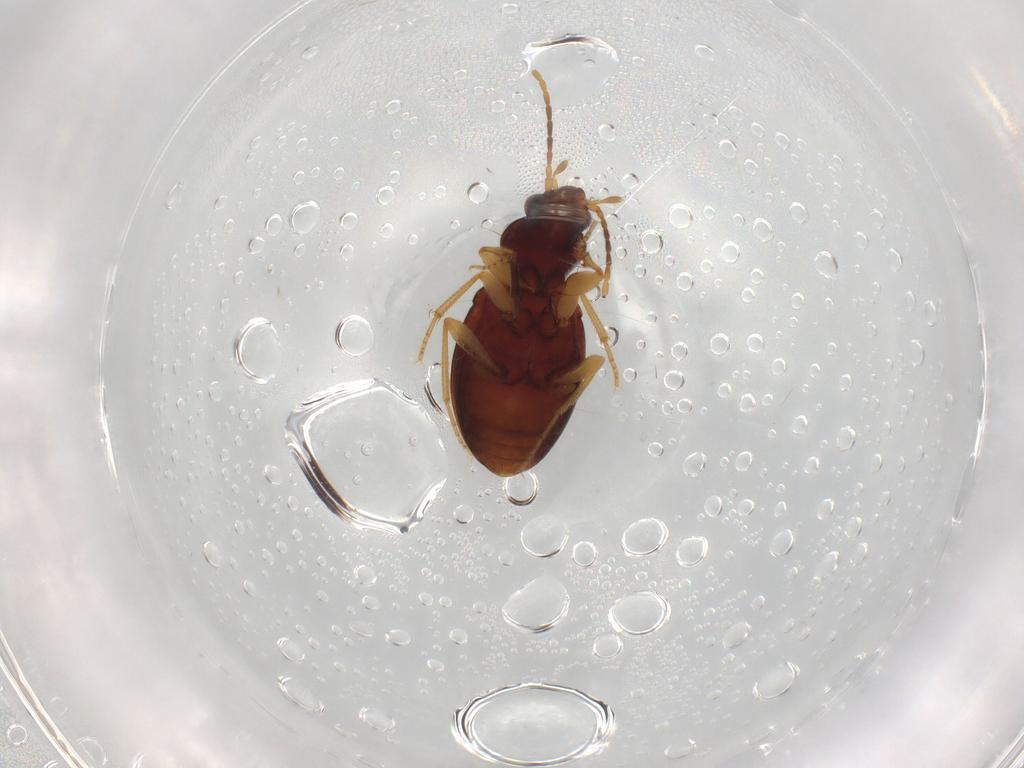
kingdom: Animalia
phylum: Arthropoda
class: Insecta
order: Coleoptera
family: Carabidae
